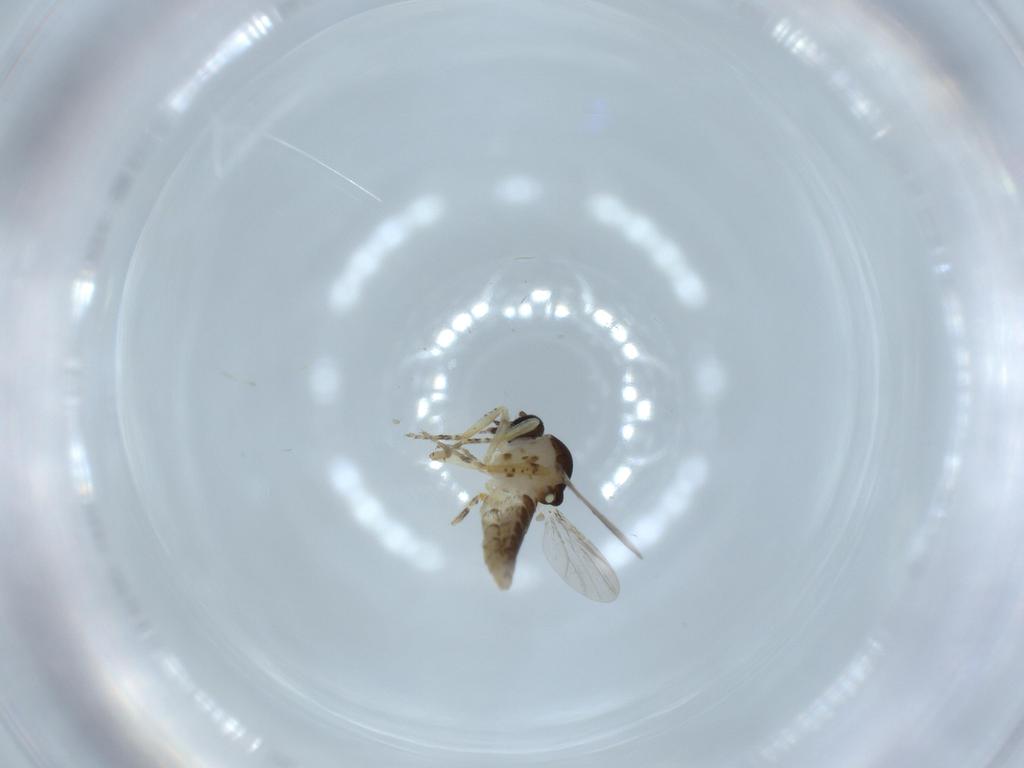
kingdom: Animalia
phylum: Arthropoda
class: Insecta
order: Diptera
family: Ceratopogonidae
